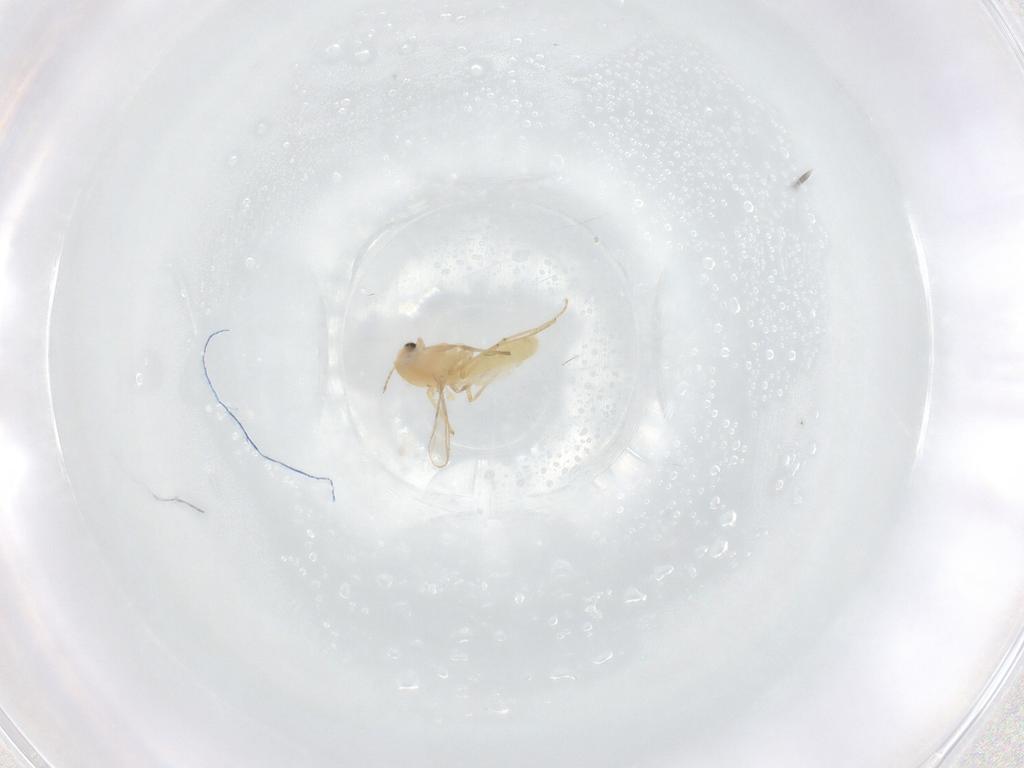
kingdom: Animalia
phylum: Arthropoda
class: Insecta
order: Diptera
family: Chironomidae
